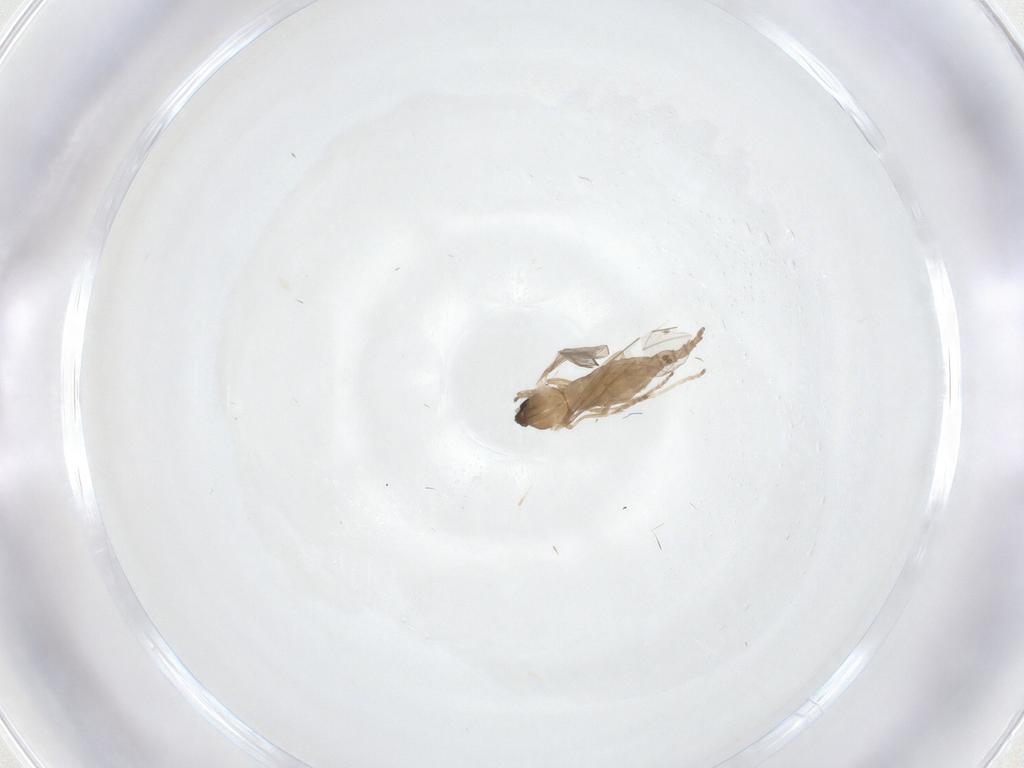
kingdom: Animalia
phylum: Arthropoda
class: Insecta
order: Diptera
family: Cecidomyiidae
